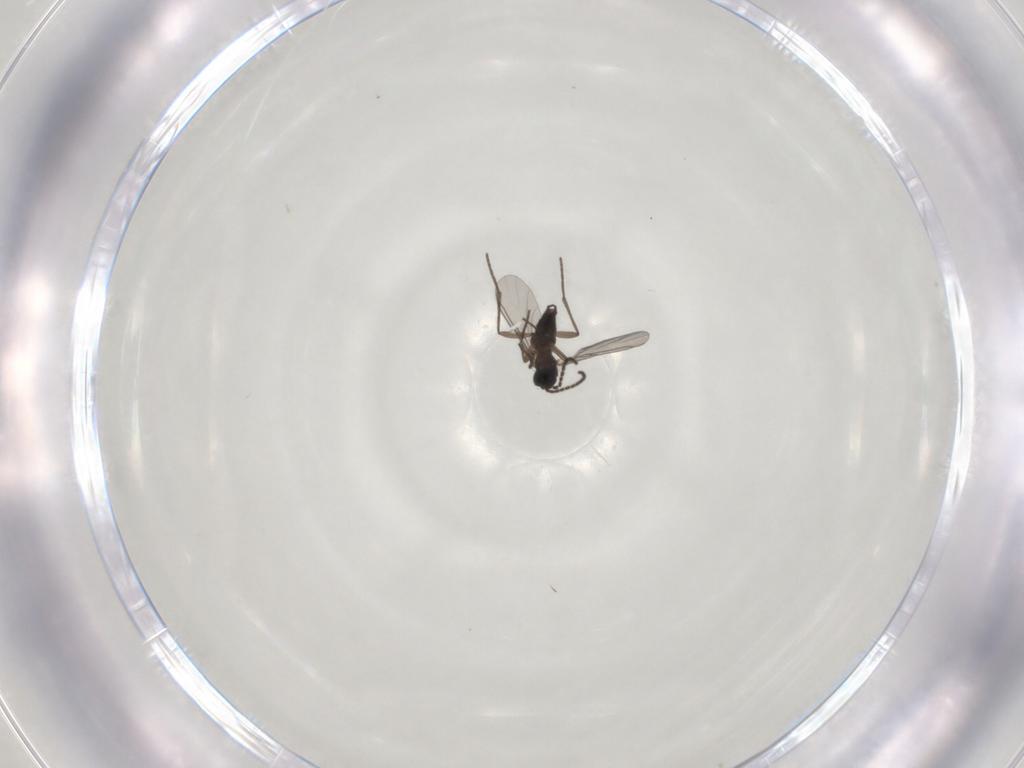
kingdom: Animalia
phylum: Arthropoda
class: Insecta
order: Diptera
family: Sciaridae
